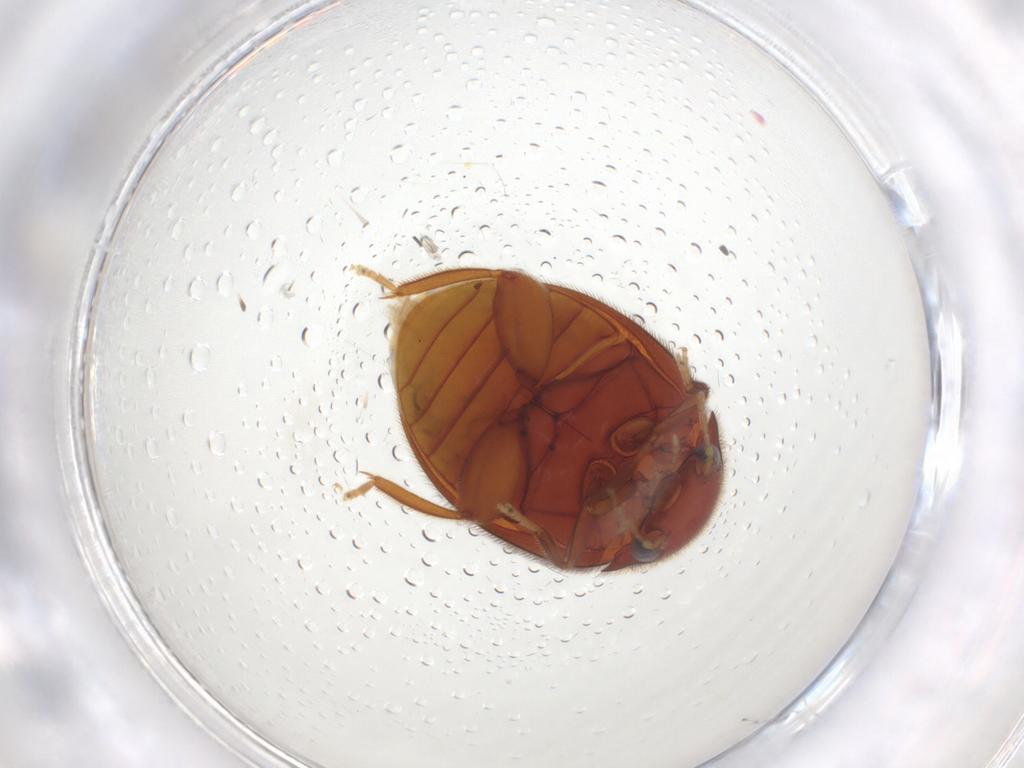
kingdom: Animalia
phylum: Arthropoda
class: Insecta
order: Coleoptera
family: Scirtidae
